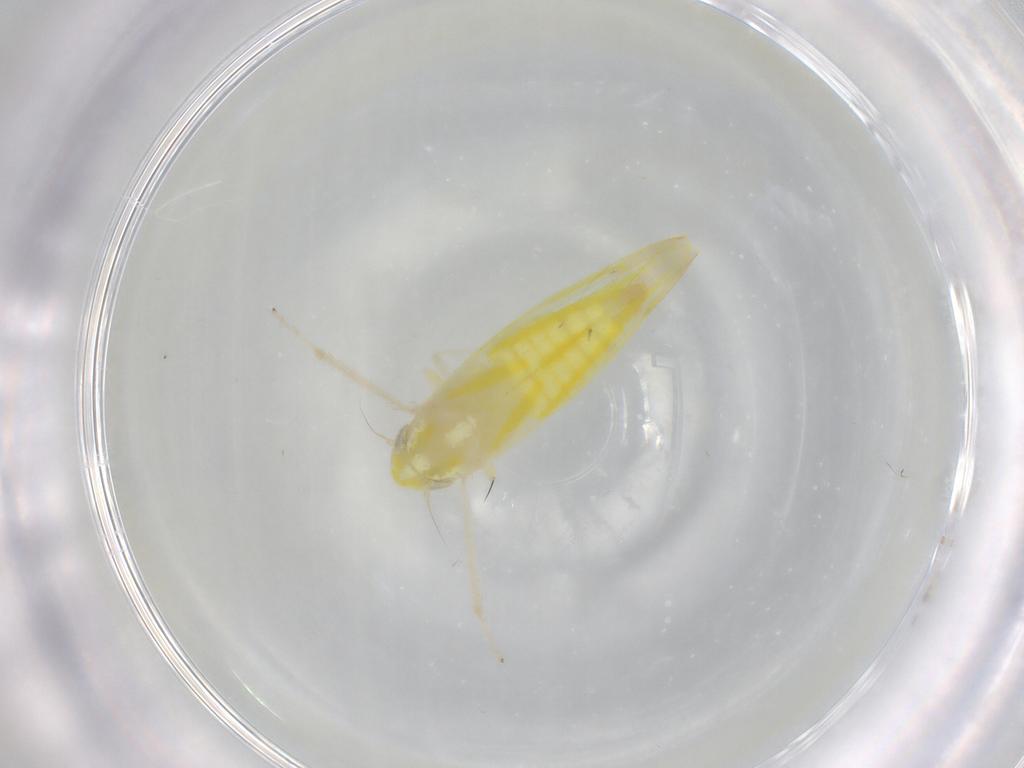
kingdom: Animalia
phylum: Arthropoda
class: Insecta
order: Hemiptera
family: Cicadellidae
